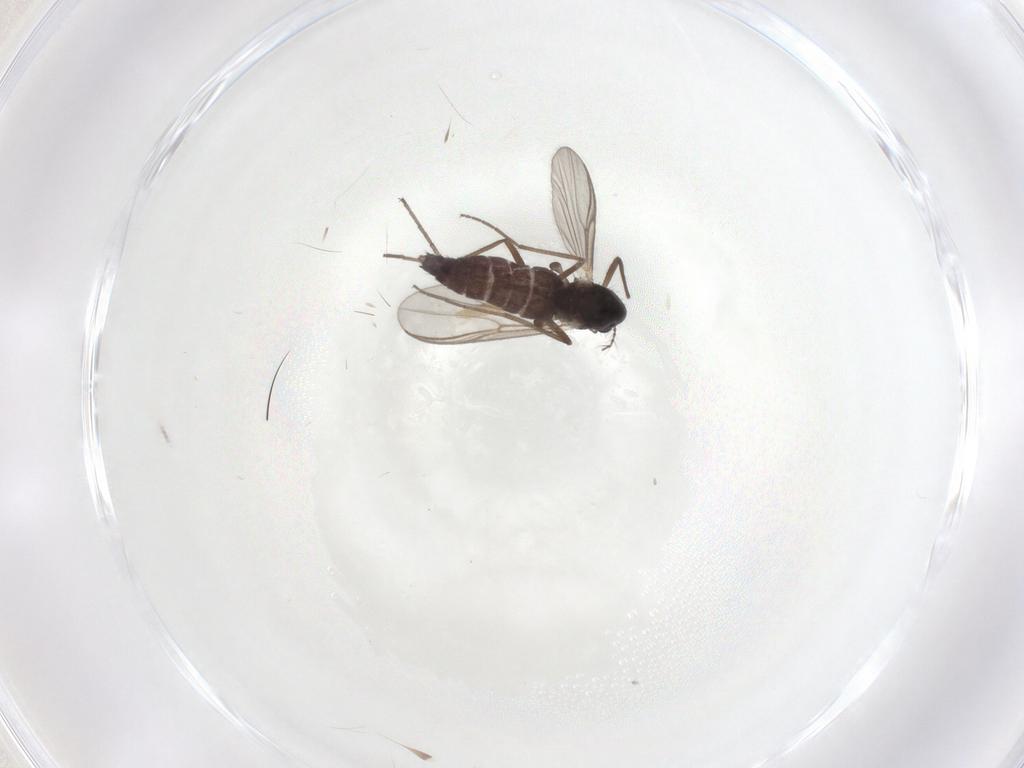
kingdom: Animalia
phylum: Arthropoda
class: Insecta
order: Diptera
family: Chironomidae
